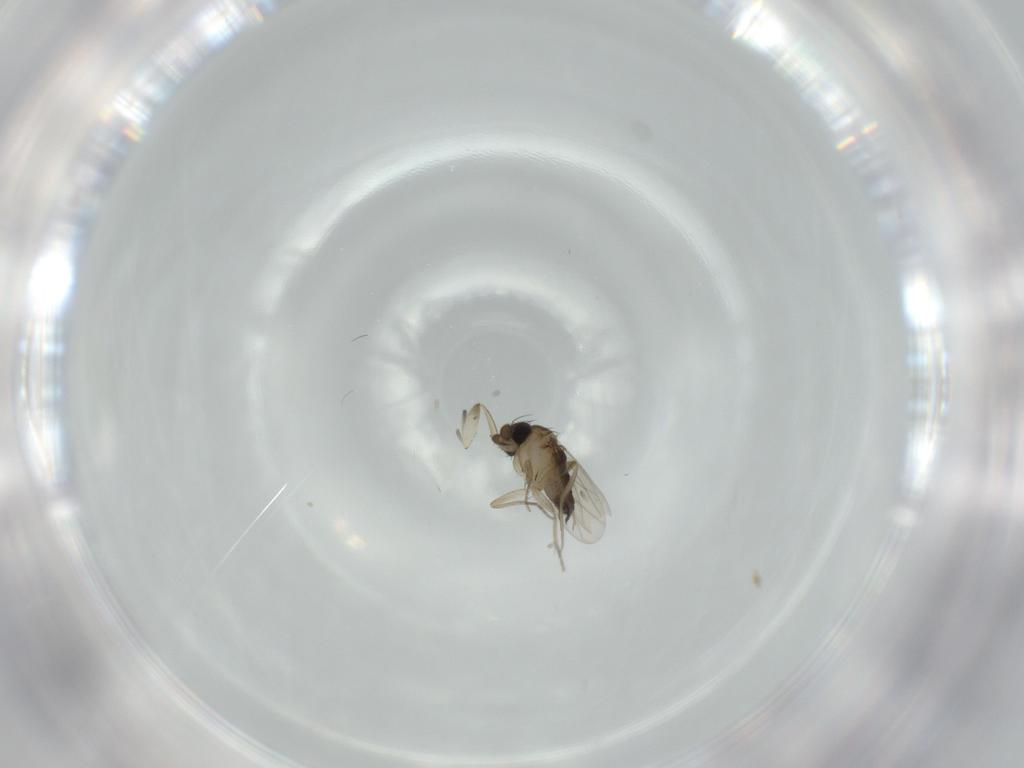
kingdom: Animalia
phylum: Arthropoda
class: Insecta
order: Diptera
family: Phoridae
